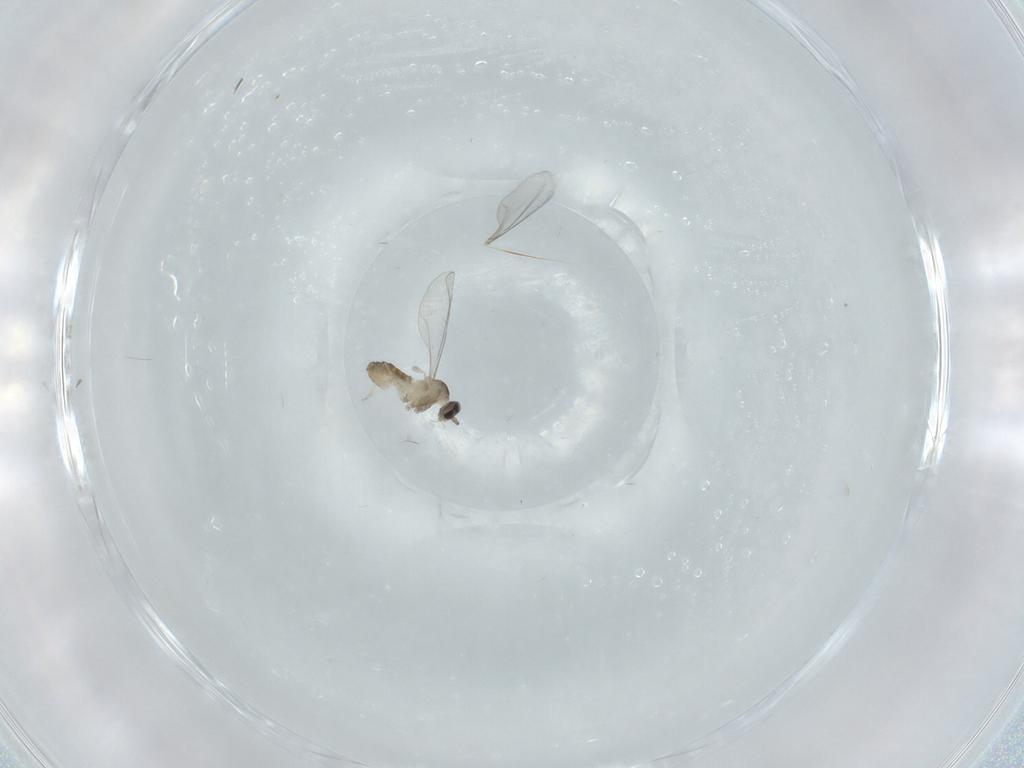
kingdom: Animalia
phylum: Arthropoda
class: Insecta
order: Diptera
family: Cecidomyiidae
